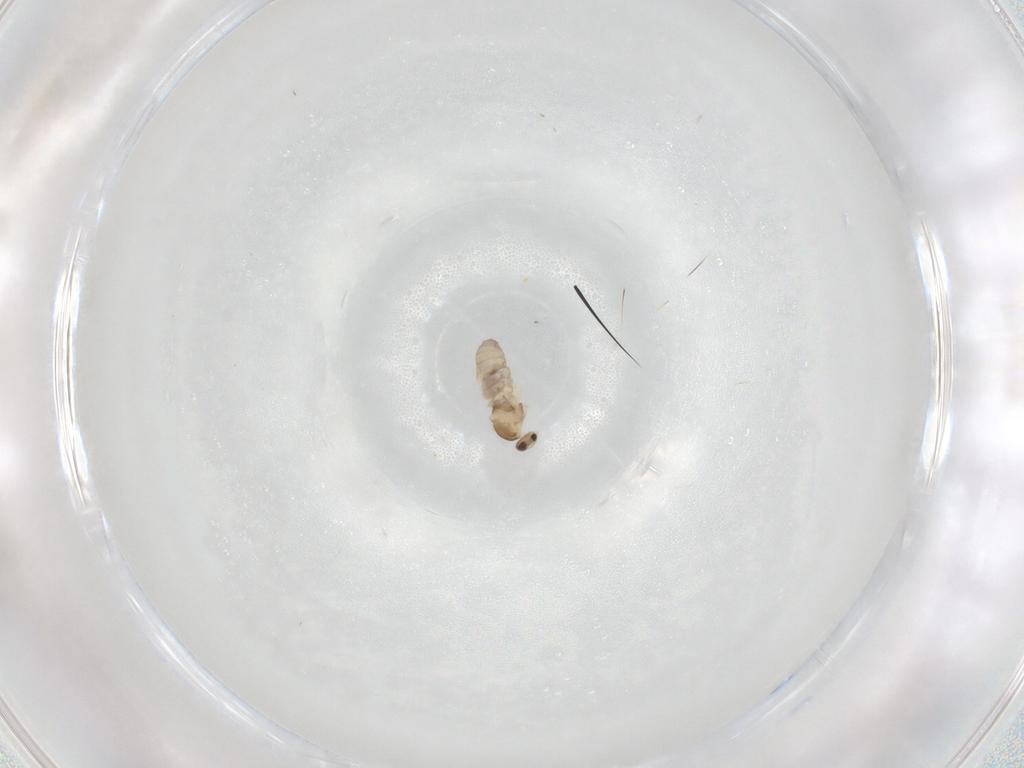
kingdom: Animalia
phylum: Arthropoda
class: Insecta
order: Diptera
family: Cecidomyiidae
